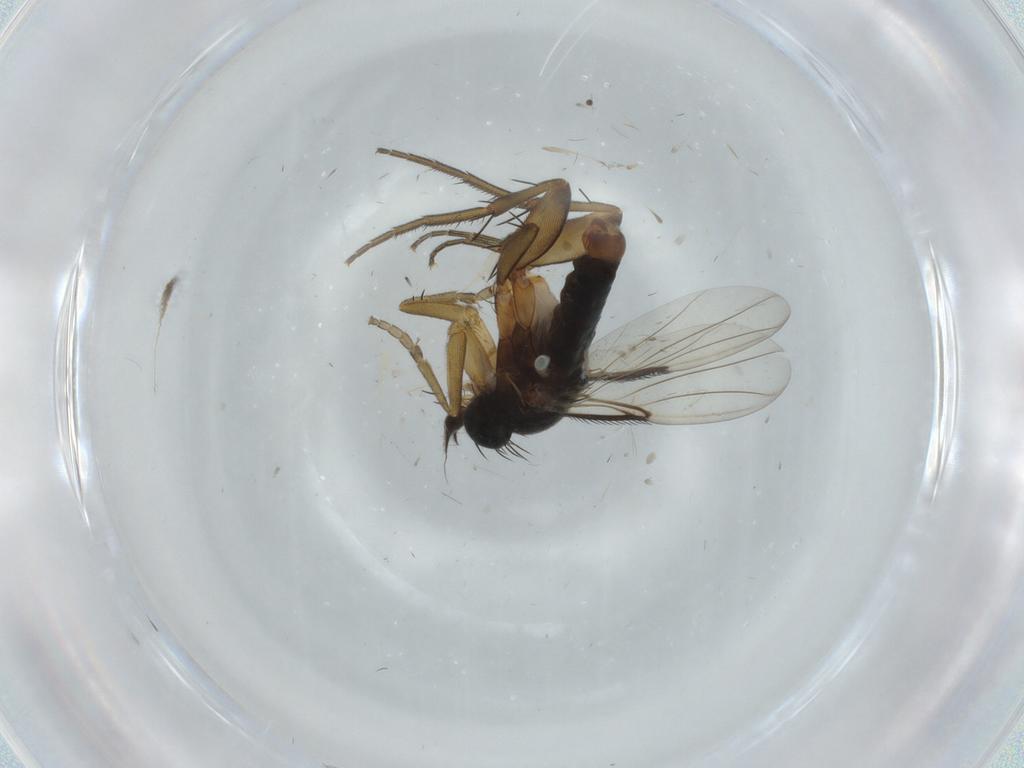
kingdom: Animalia
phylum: Arthropoda
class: Insecta
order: Diptera
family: Phoridae
